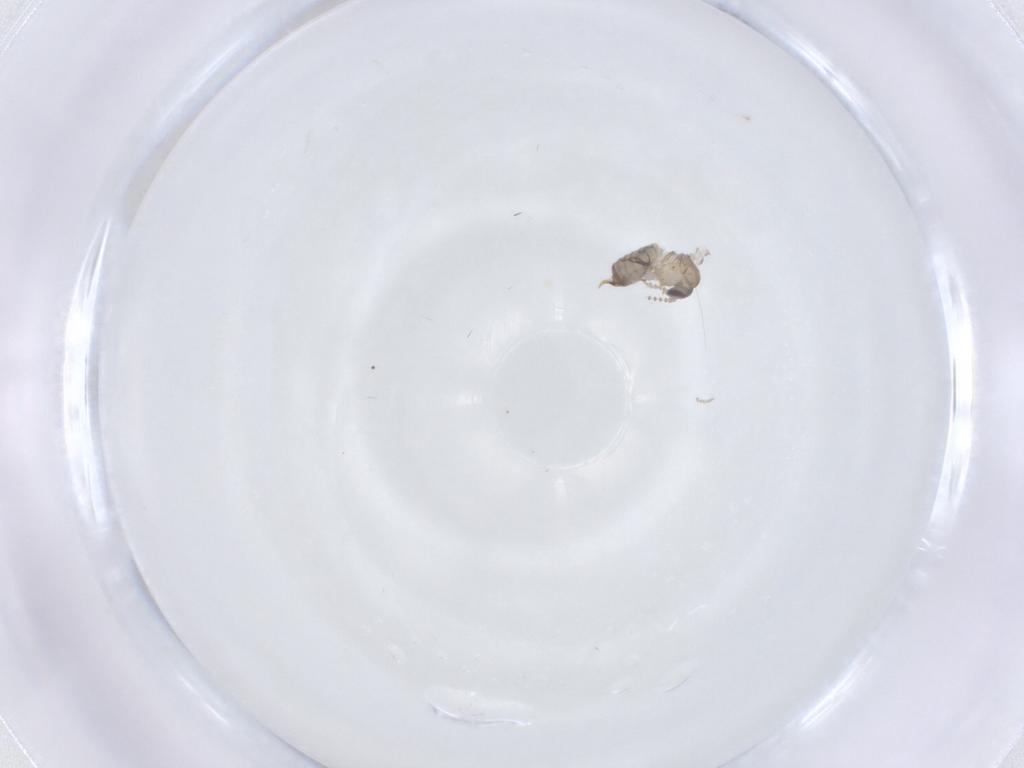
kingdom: Animalia
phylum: Arthropoda
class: Insecta
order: Diptera
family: Psychodidae
